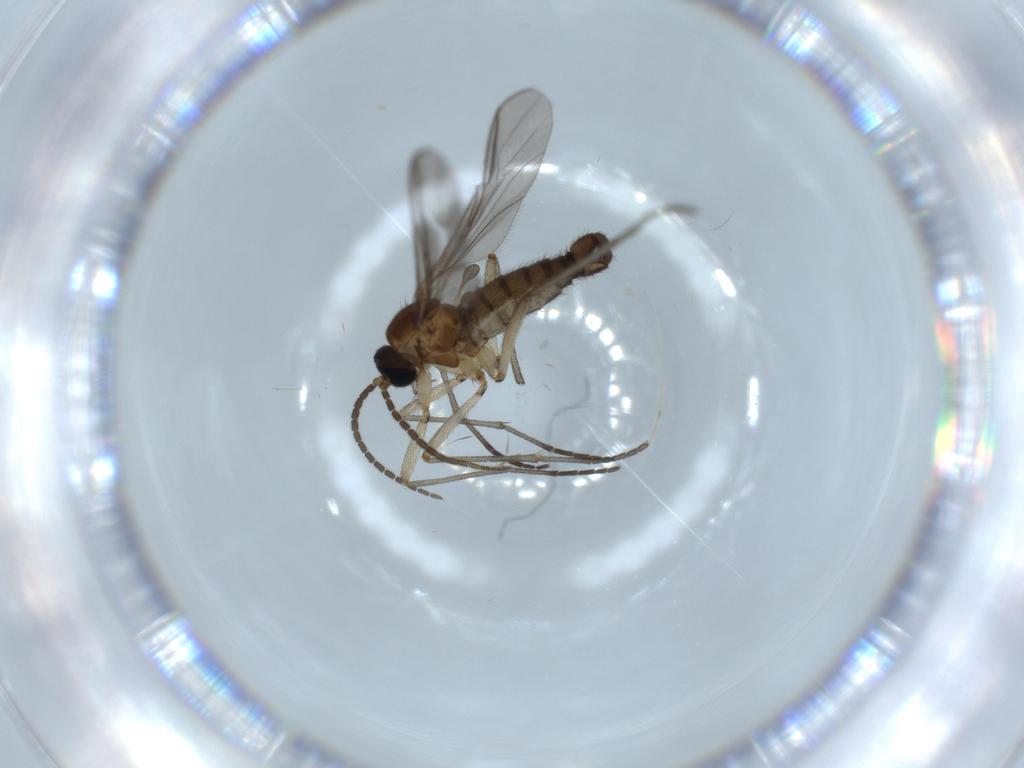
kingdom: Animalia
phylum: Arthropoda
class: Insecta
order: Diptera
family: Sciaridae
